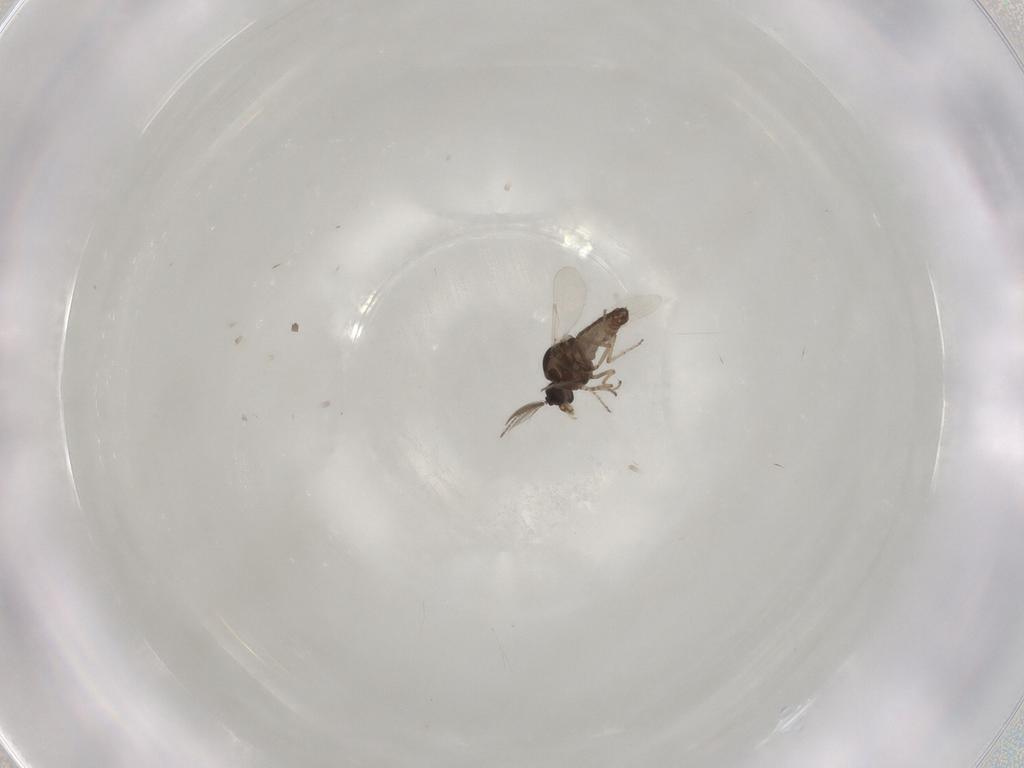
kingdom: Animalia
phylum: Arthropoda
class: Insecta
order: Diptera
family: Ceratopogonidae
